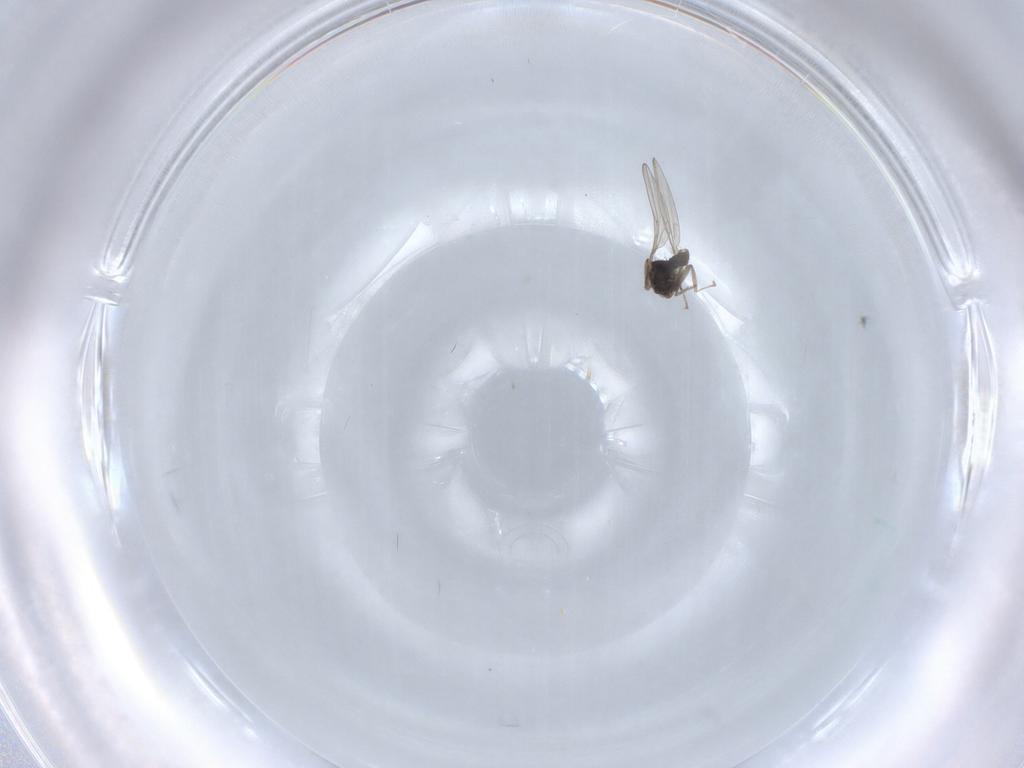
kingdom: Animalia
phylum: Arthropoda
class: Insecta
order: Diptera
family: Cecidomyiidae
